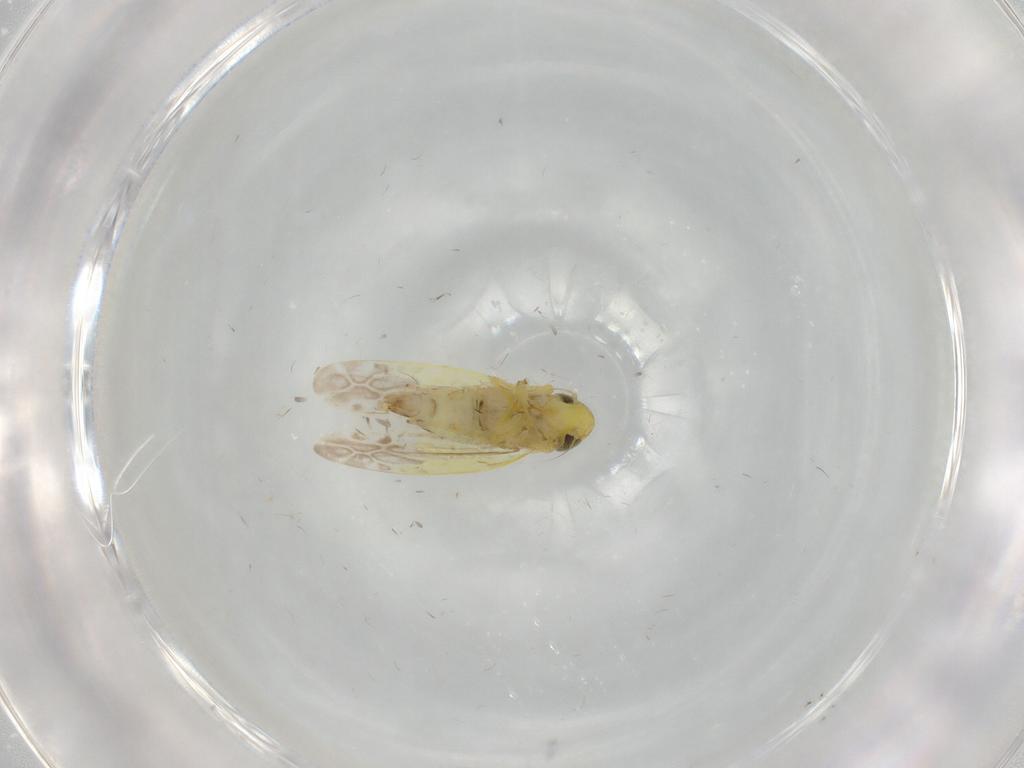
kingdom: Animalia
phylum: Arthropoda
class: Insecta
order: Hemiptera
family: Cicadellidae
